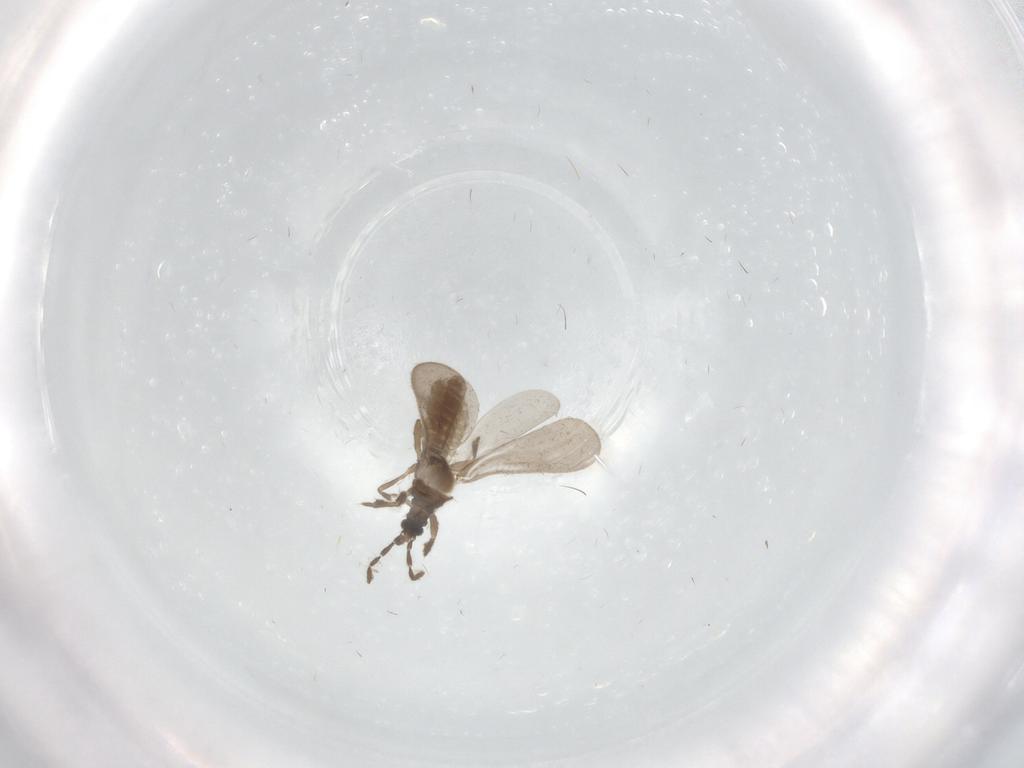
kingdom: Animalia
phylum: Arthropoda
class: Insecta
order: Hemiptera
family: Enicocephalidae
